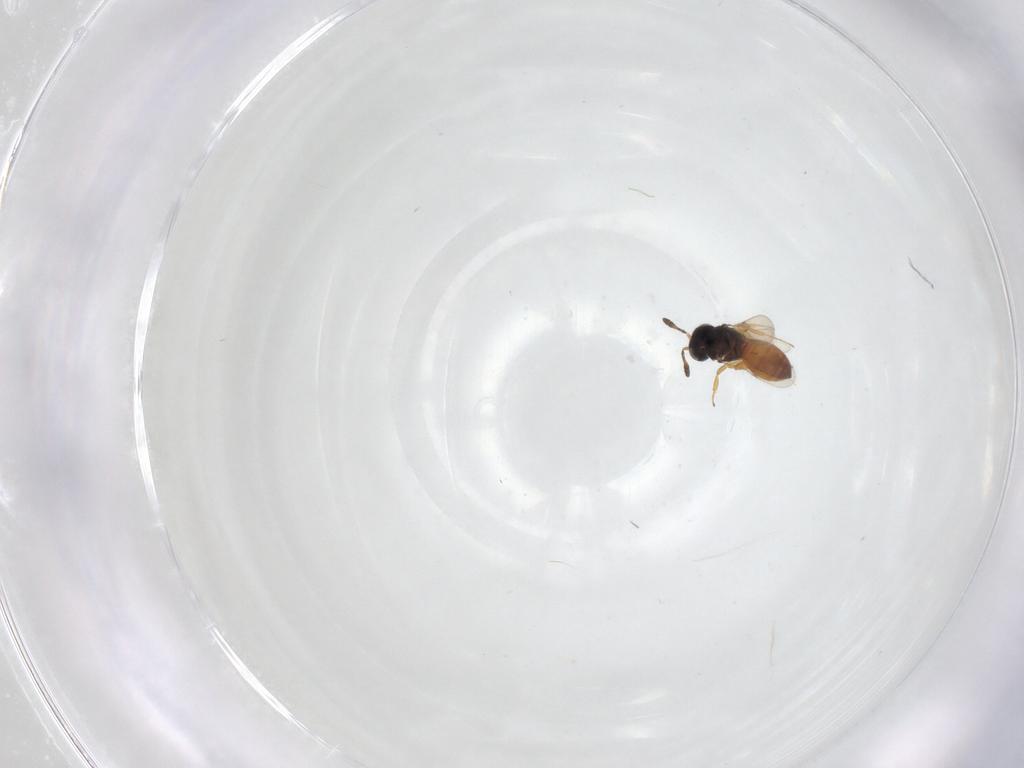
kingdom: Animalia
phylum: Arthropoda
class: Insecta
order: Hymenoptera
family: Scelionidae
